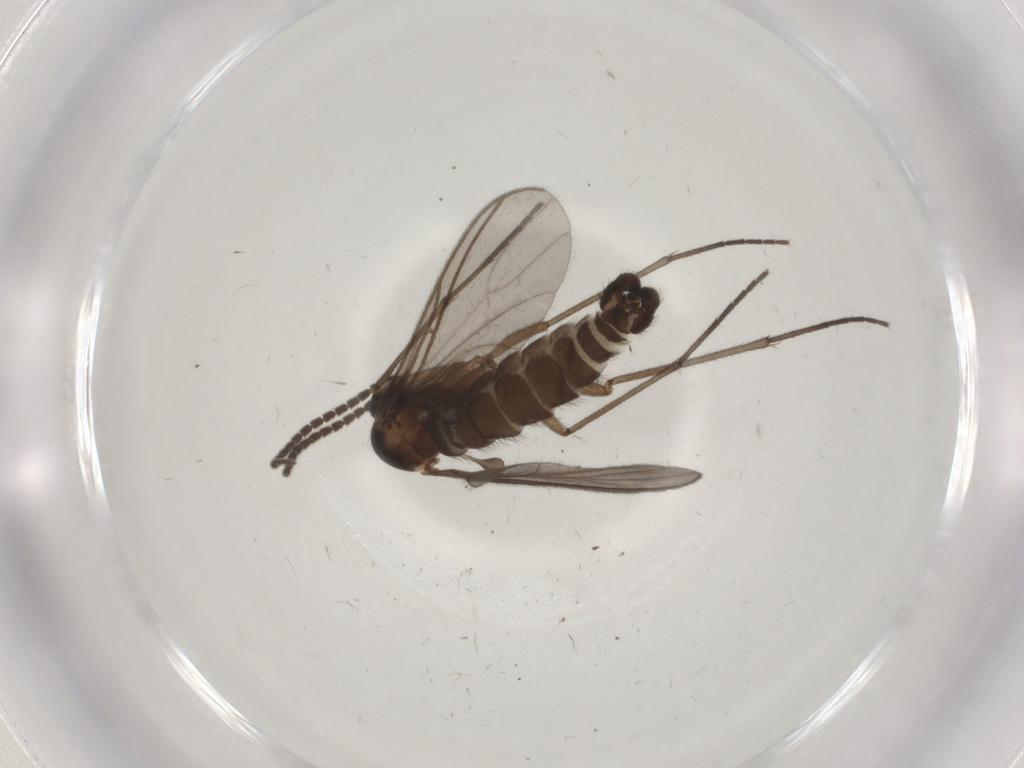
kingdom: Animalia
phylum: Arthropoda
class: Insecta
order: Diptera
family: Sciaridae
